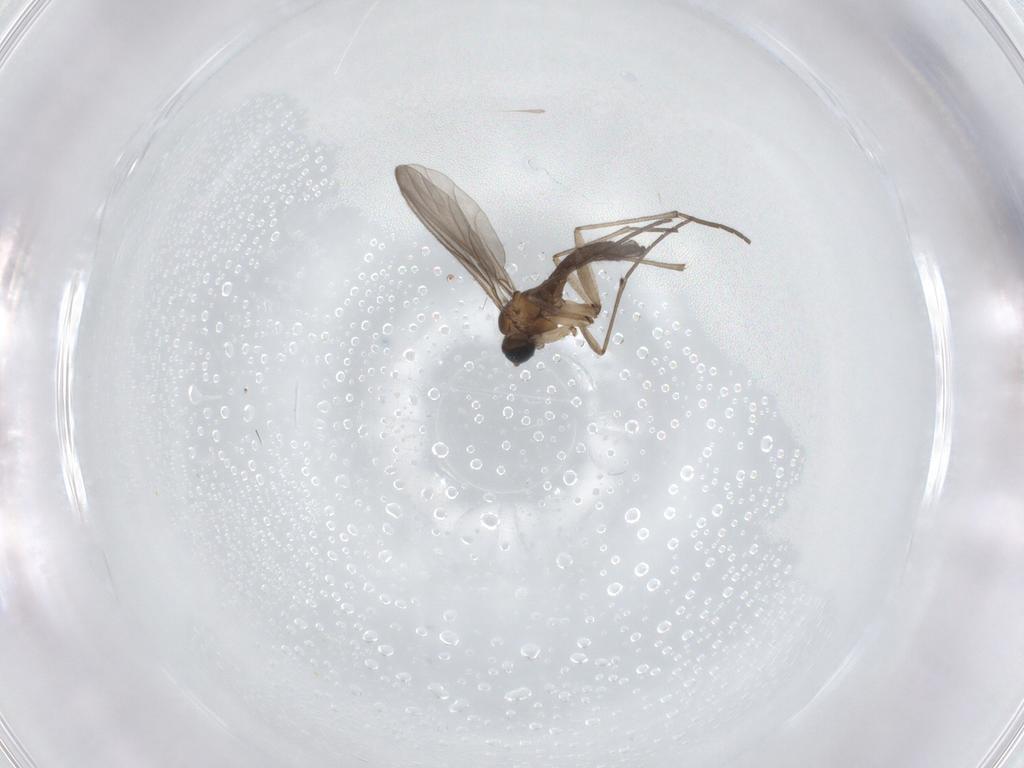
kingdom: Animalia
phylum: Arthropoda
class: Insecta
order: Diptera
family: Sciaridae
